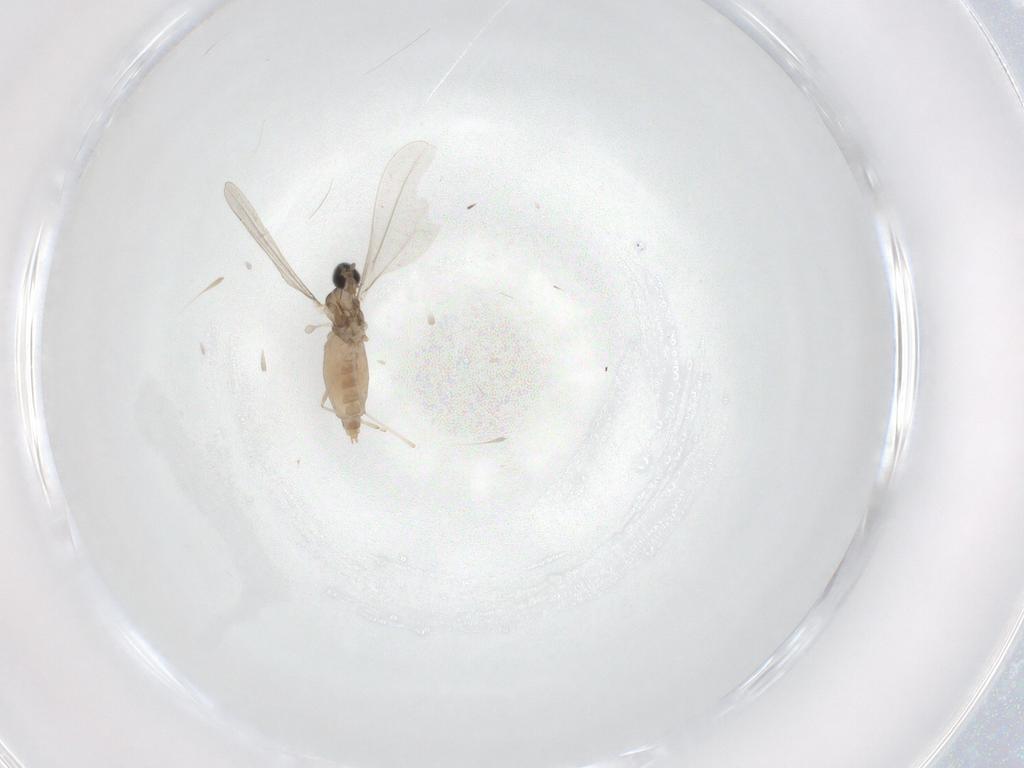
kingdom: Animalia
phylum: Arthropoda
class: Insecta
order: Diptera
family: Cecidomyiidae
